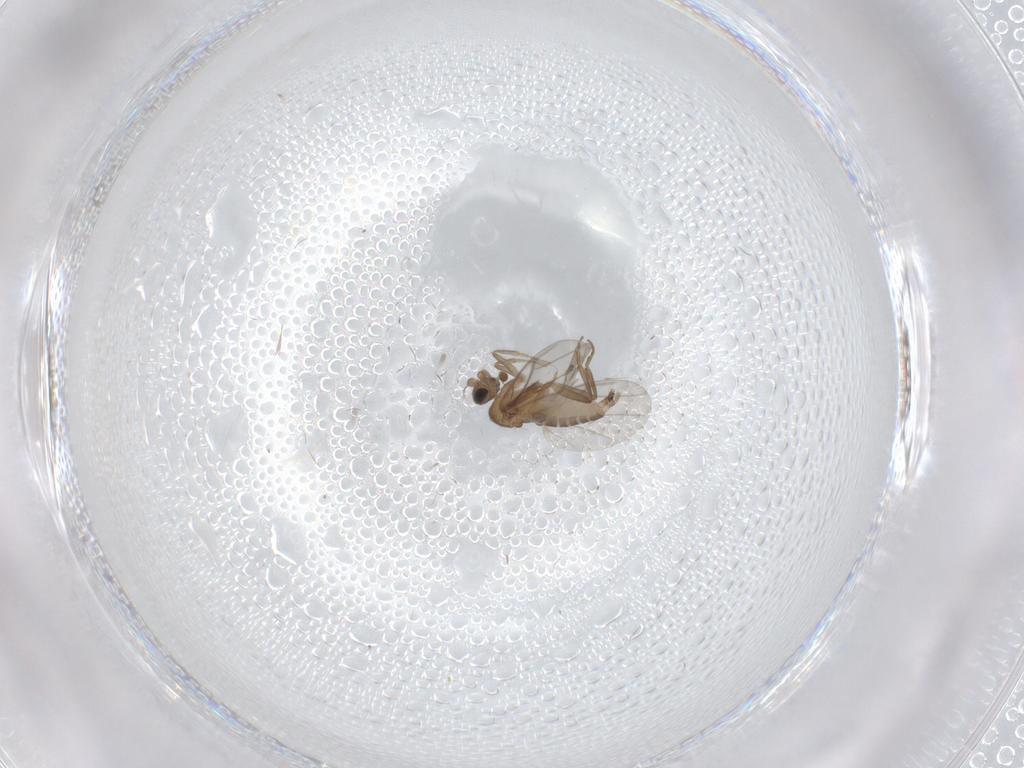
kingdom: Animalia
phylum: Arthropoda
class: Insecta
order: Diptera
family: Phoridae
